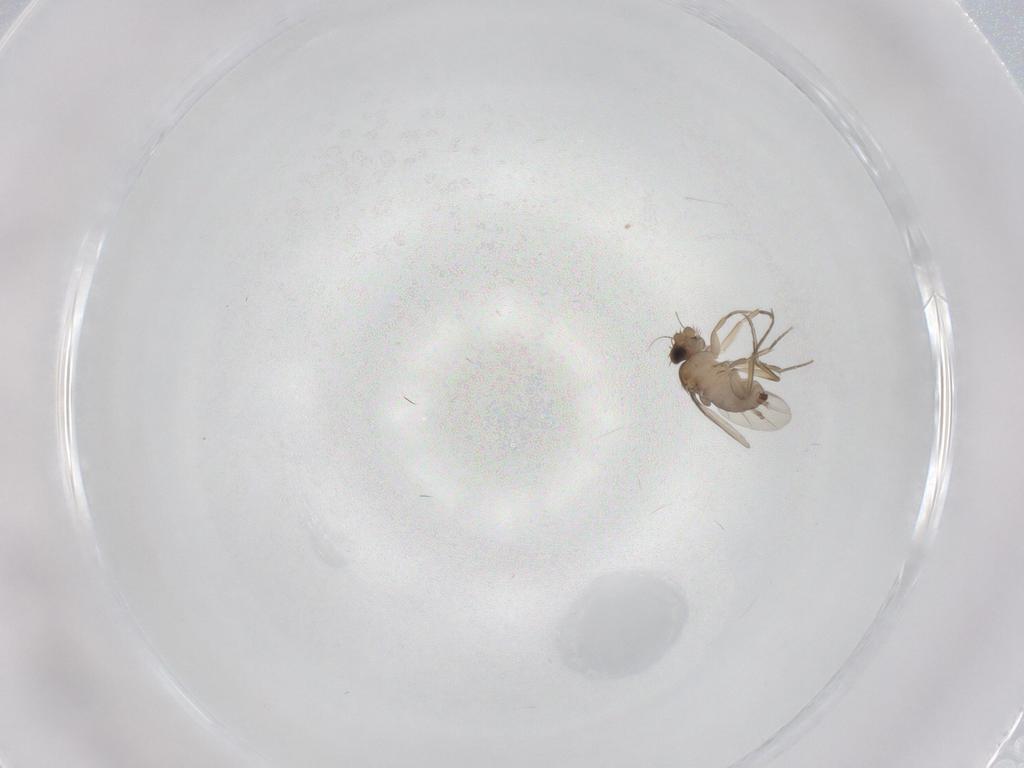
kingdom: Animalia
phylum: Arthropoda
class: Insecta
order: Diptera
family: Phoridae
